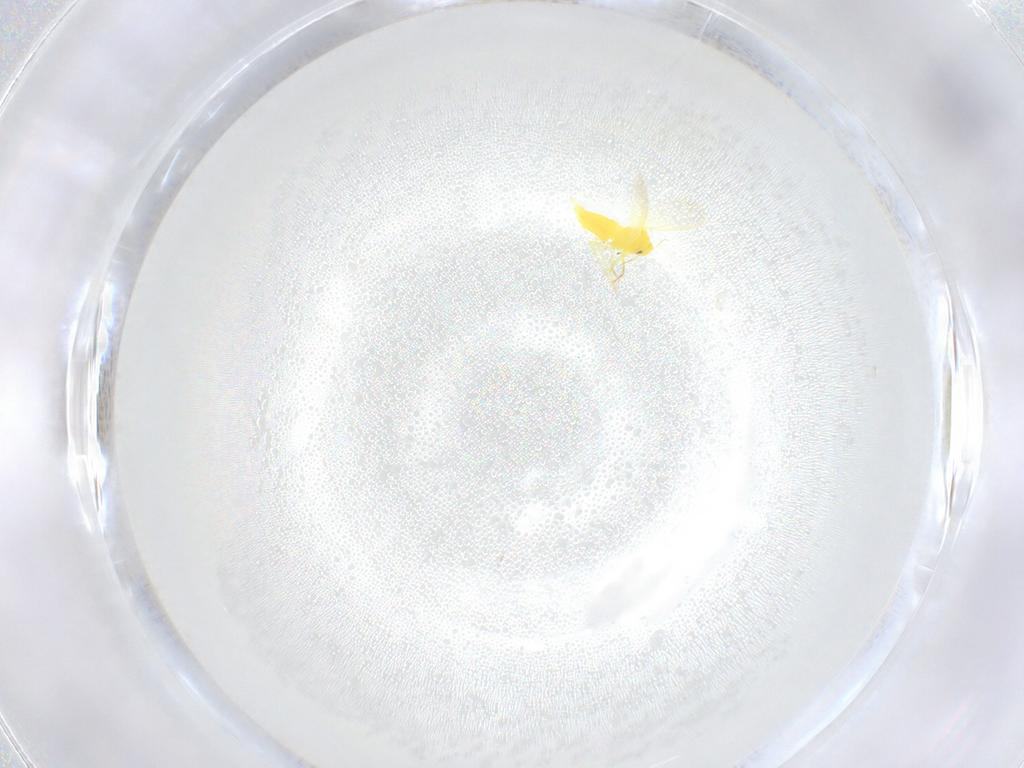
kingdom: Animalia
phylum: Arthropoda
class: Insecta
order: Hemiptera
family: Aleyrodidae
